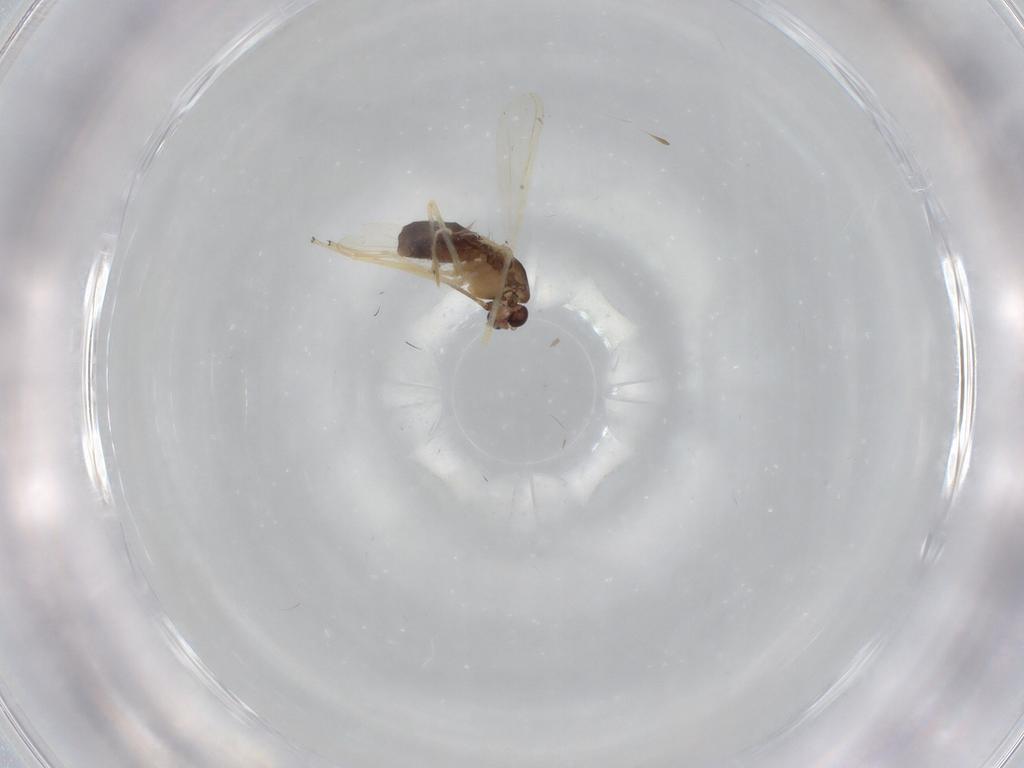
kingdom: Animalia
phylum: Arthropoda
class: Insecta
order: Diptera
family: Chironomidae
